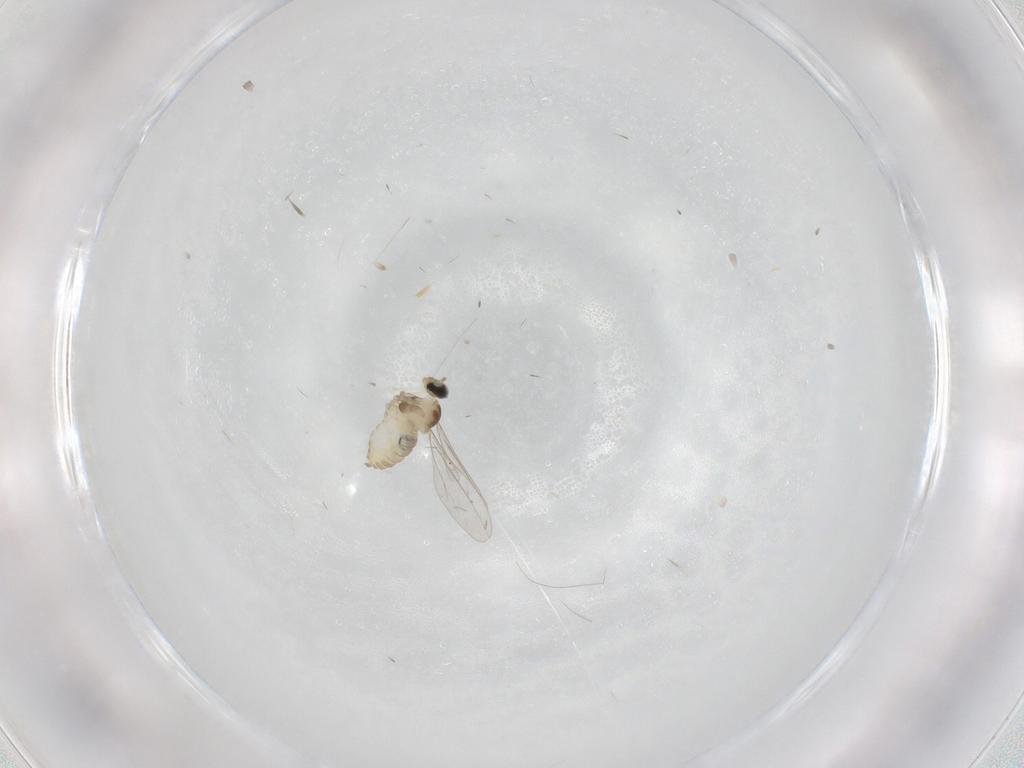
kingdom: Animalia
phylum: Arthropoda
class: Insecta
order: Diptera
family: Cecidomyiidae
